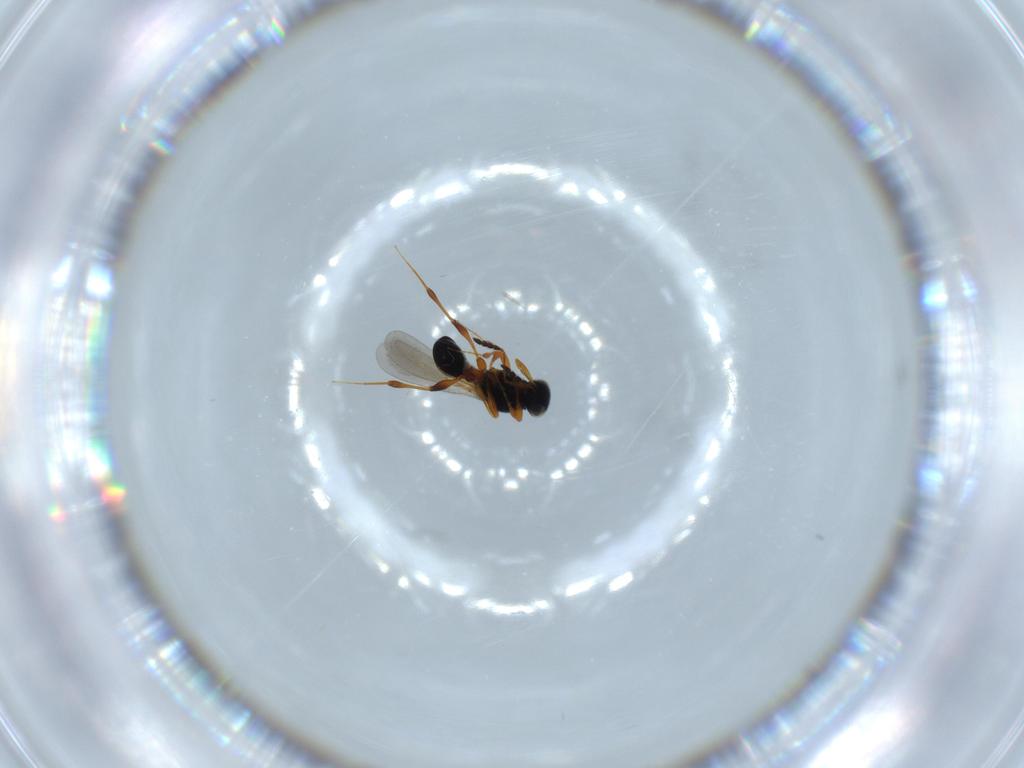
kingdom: Animalia
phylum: Arthropoda
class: Insecta
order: Hymenoptera
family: Platygastridae
